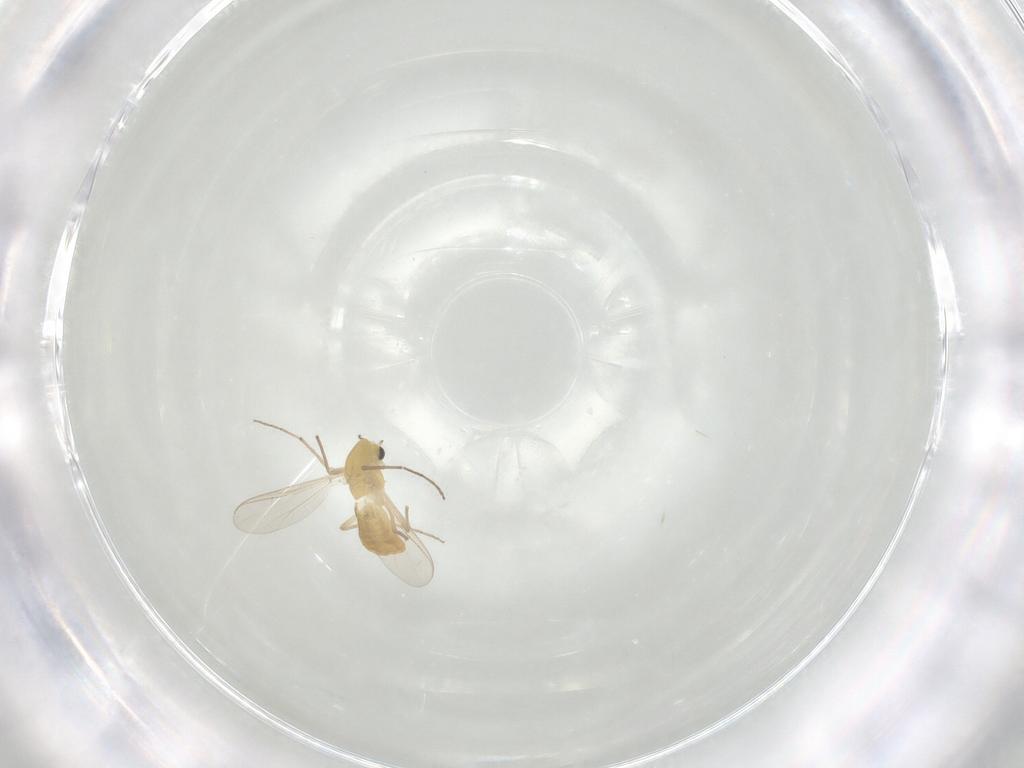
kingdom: Animalia
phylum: Arthropoda
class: Insecta
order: Diptera
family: Chironomidae
